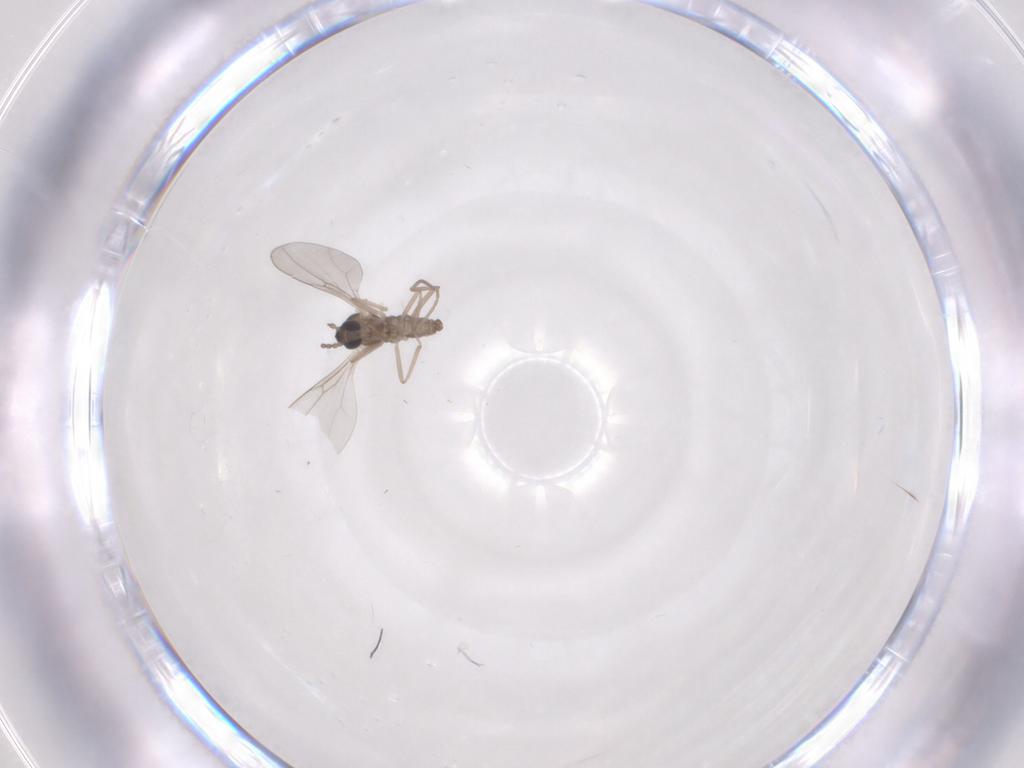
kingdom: Animalia
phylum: Arthropoda
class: Insecta
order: Diptera
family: Cecidomyiidae
